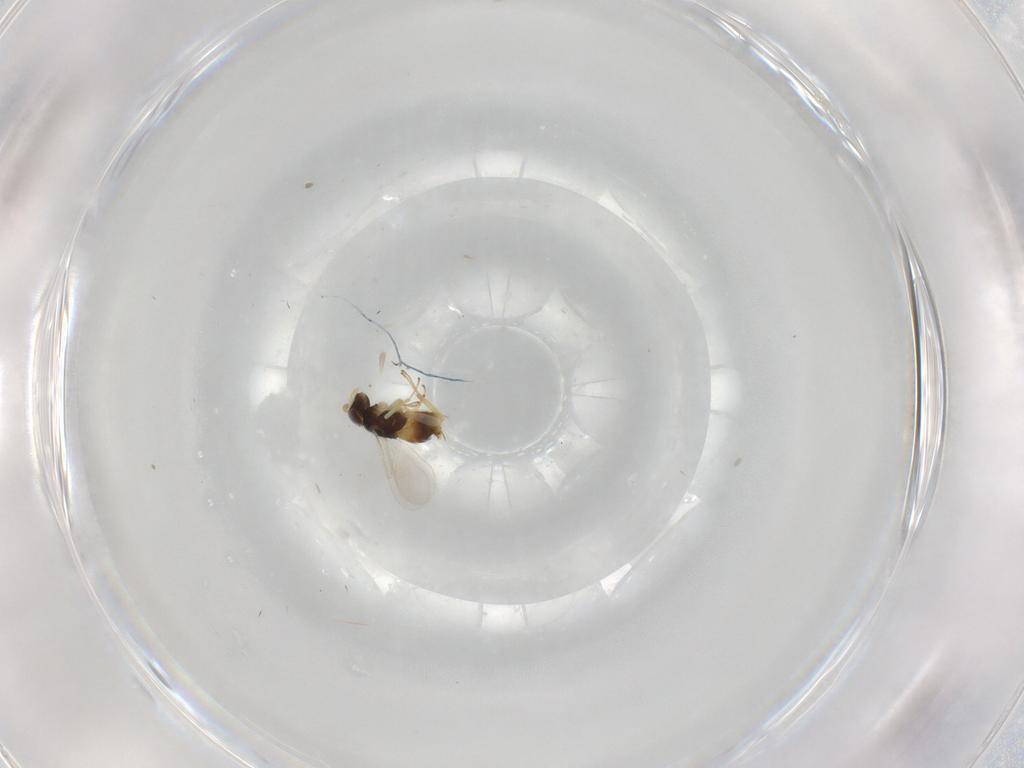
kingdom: Animalia
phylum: Arthropoda
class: Insecta
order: Hymenoptera
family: Aphelinidae
